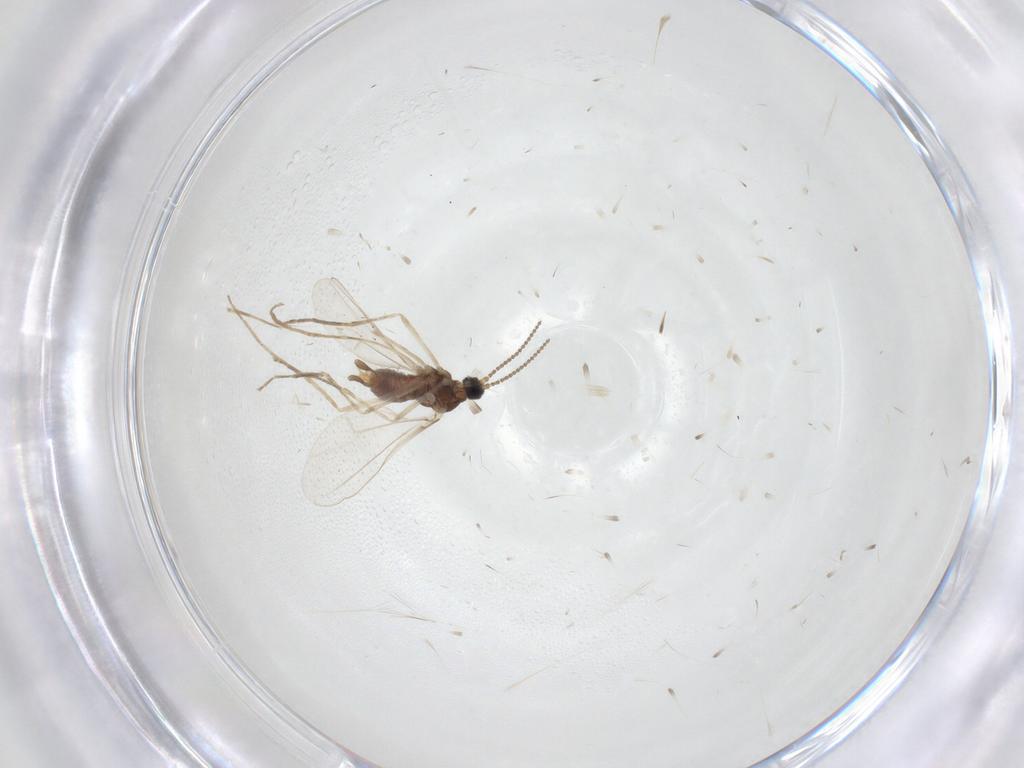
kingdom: Animalia
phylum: Arthropoda
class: Insecta
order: Diptera
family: Cecidomyiidae
